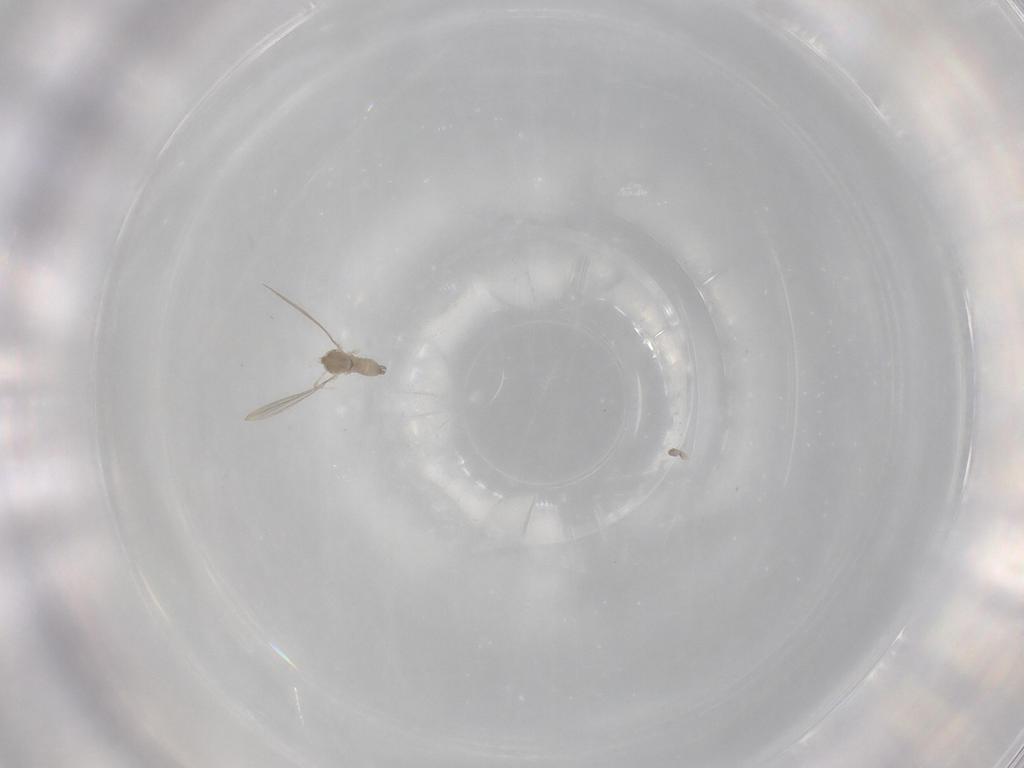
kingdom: Animalia
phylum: Arthropoda
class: Insecta
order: Diptera
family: Cecidomyiidae
